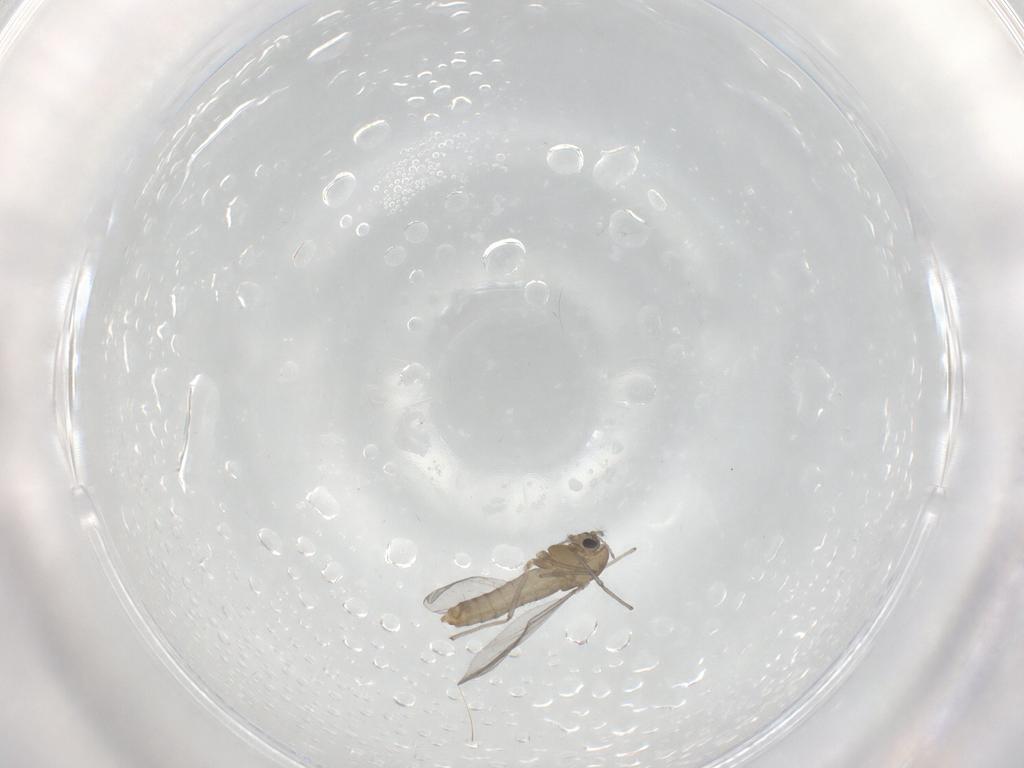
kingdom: Animalia
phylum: Arthropoda
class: Insecta
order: Diptera
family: Chironomidae
